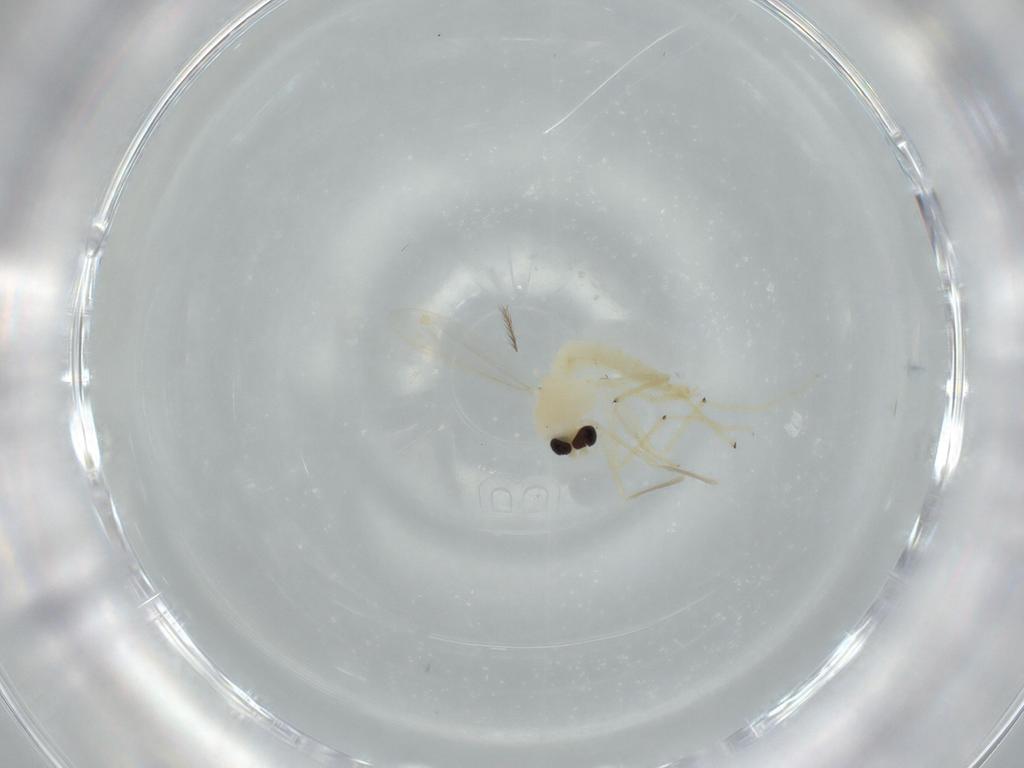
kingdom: Animalia
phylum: Arthropoda
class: Insecta
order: Diptera
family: Chironomidae
